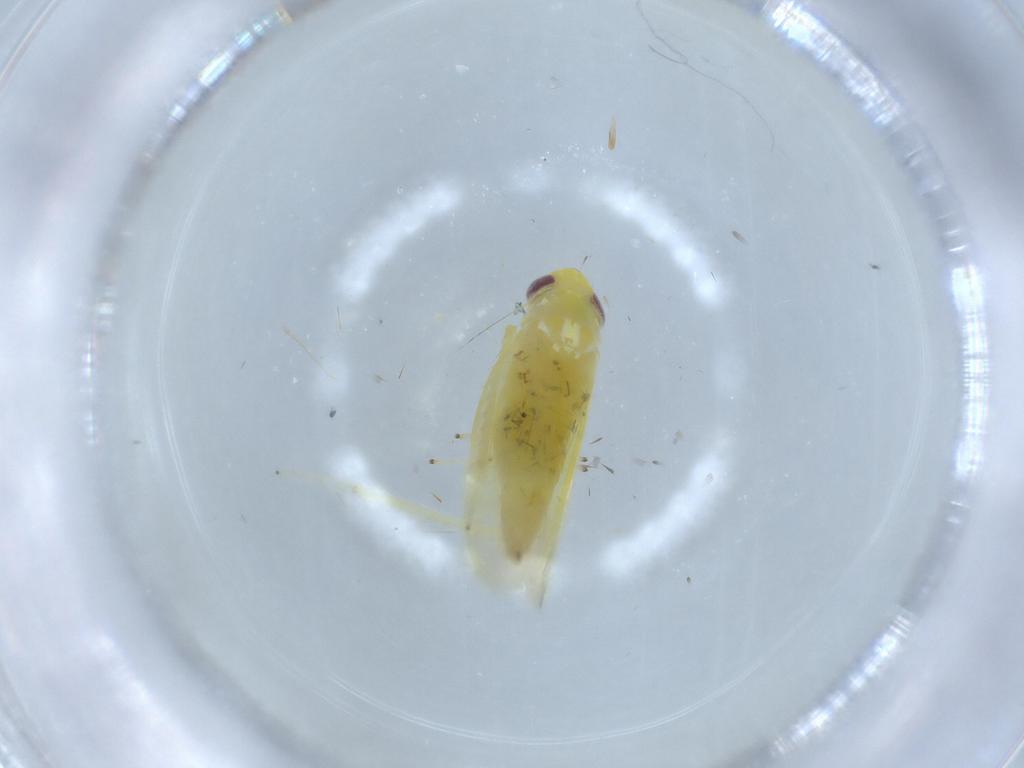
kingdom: Animalia
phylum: Arthropoda
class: Insecta
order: Hemiptera
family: Cicadellidae
